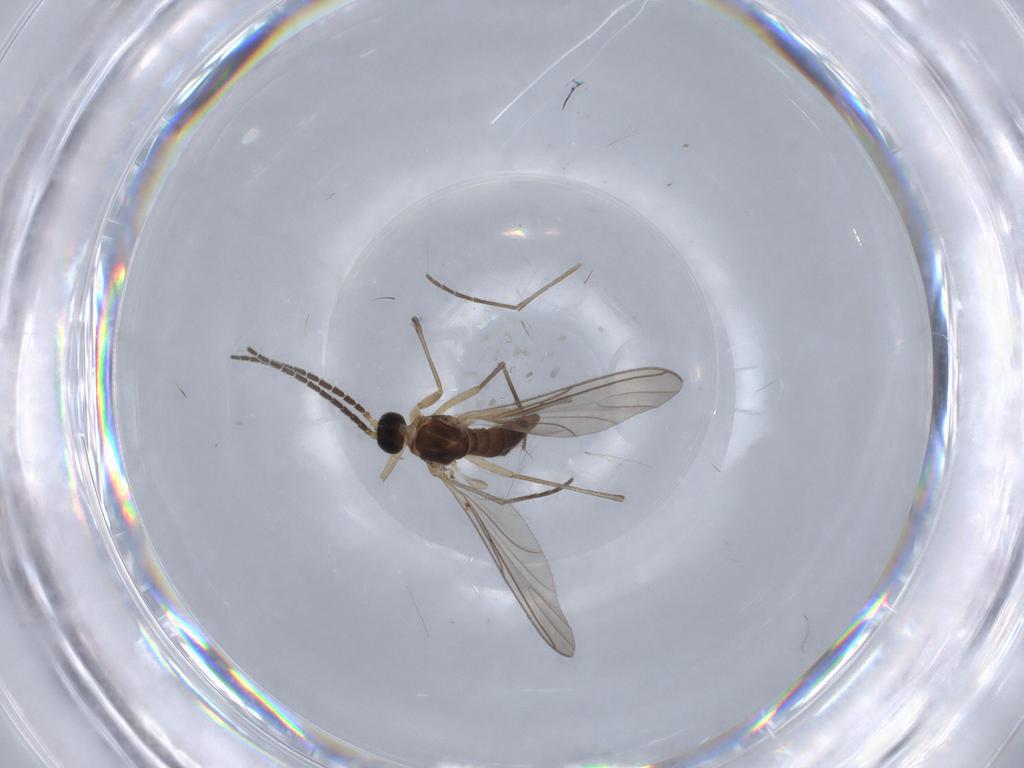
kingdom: Animalia
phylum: Arthropoda
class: Insecta
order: Diptera
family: Sciaridae
